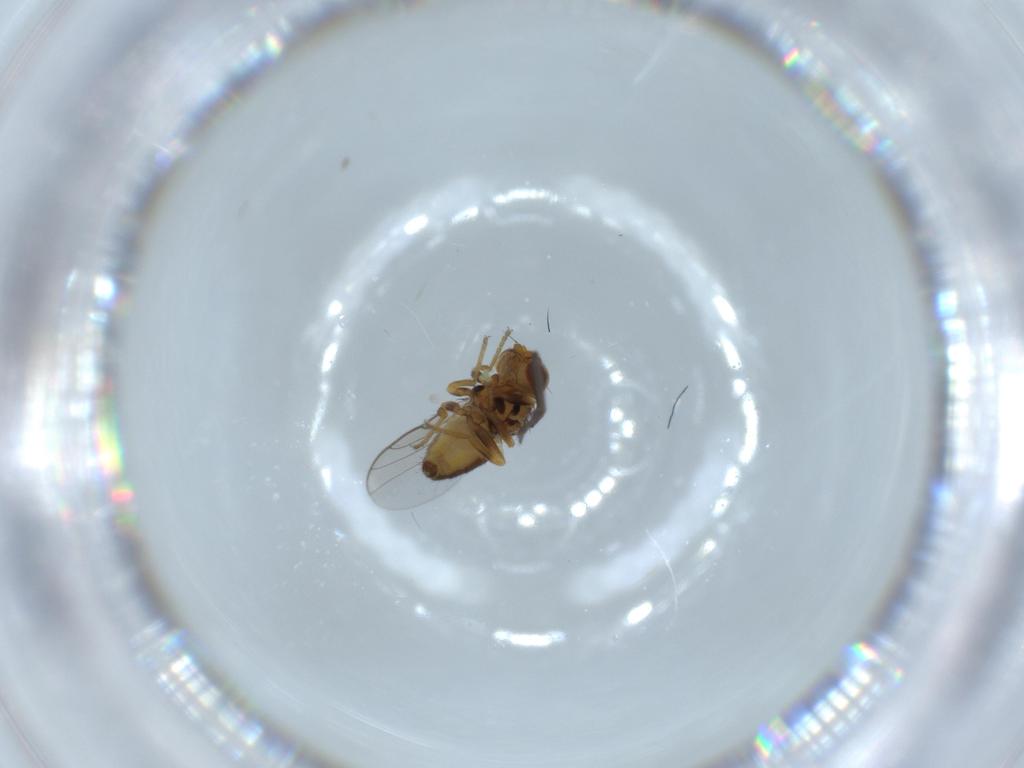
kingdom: Animalia
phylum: Arthropoda
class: Insecta
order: Diptera
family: Chloropidae
